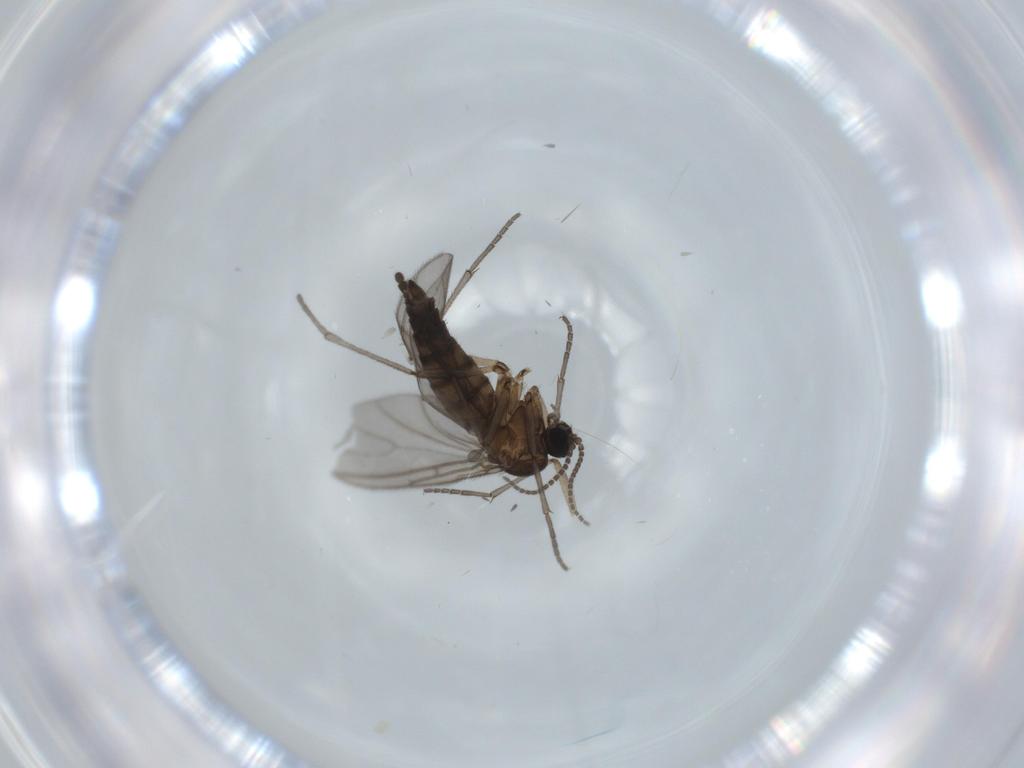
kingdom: Animalia
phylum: Arthropoda
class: Insecta
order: Diptera
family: Sciaridae
